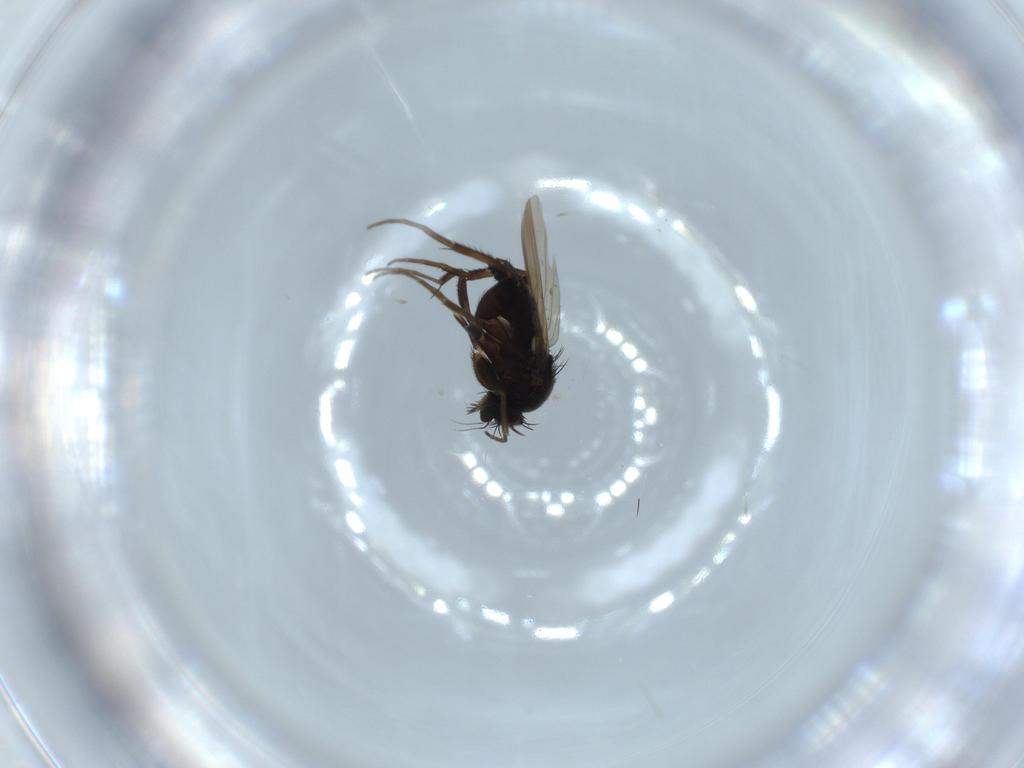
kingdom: Animalia
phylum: Arthropoda
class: Insecta
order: Diptera
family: Phoridae
